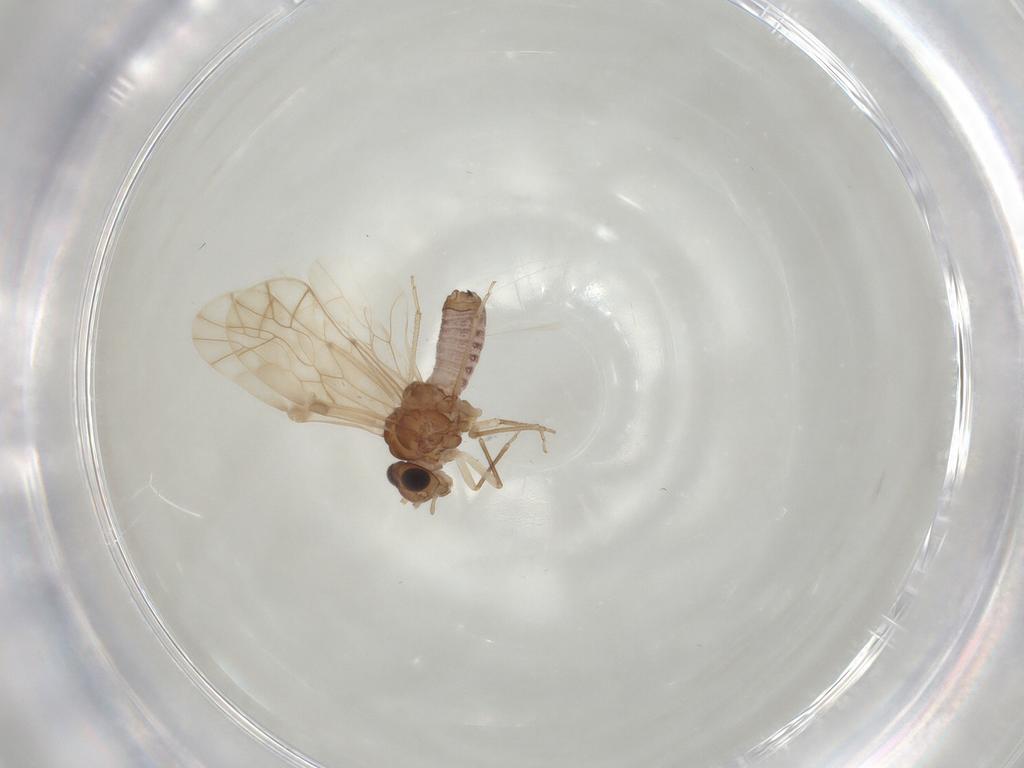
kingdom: Animalia
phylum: Arthropoda
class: Insecta
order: Psocodea
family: Peripsocidae
